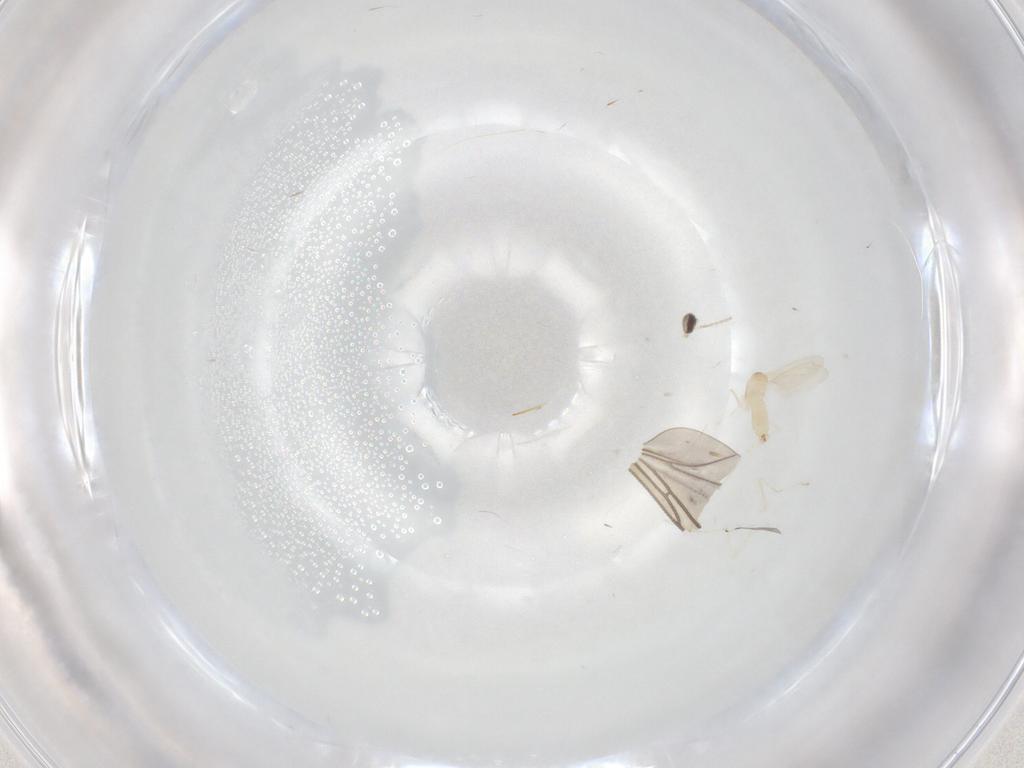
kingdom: Animalia
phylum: Arthropoda
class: Insecta
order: Diptera
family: Cecidomyiidae
